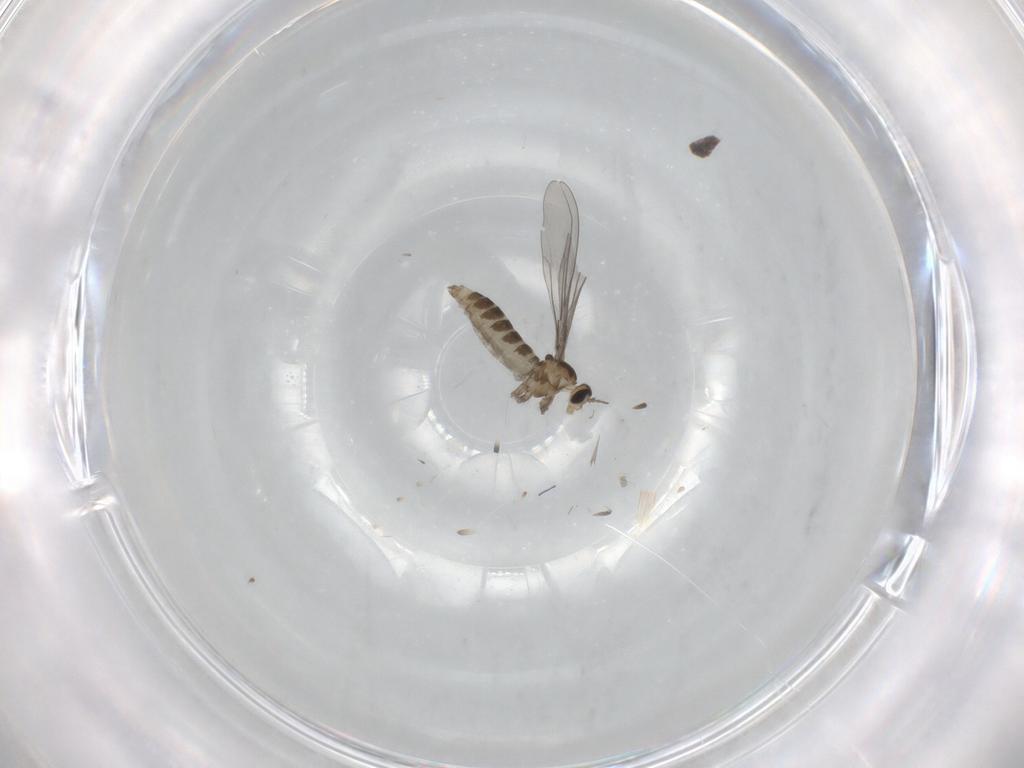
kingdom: Animalia
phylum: Arthropoda
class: Insecta
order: Diptera
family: Cecidomyiidae
